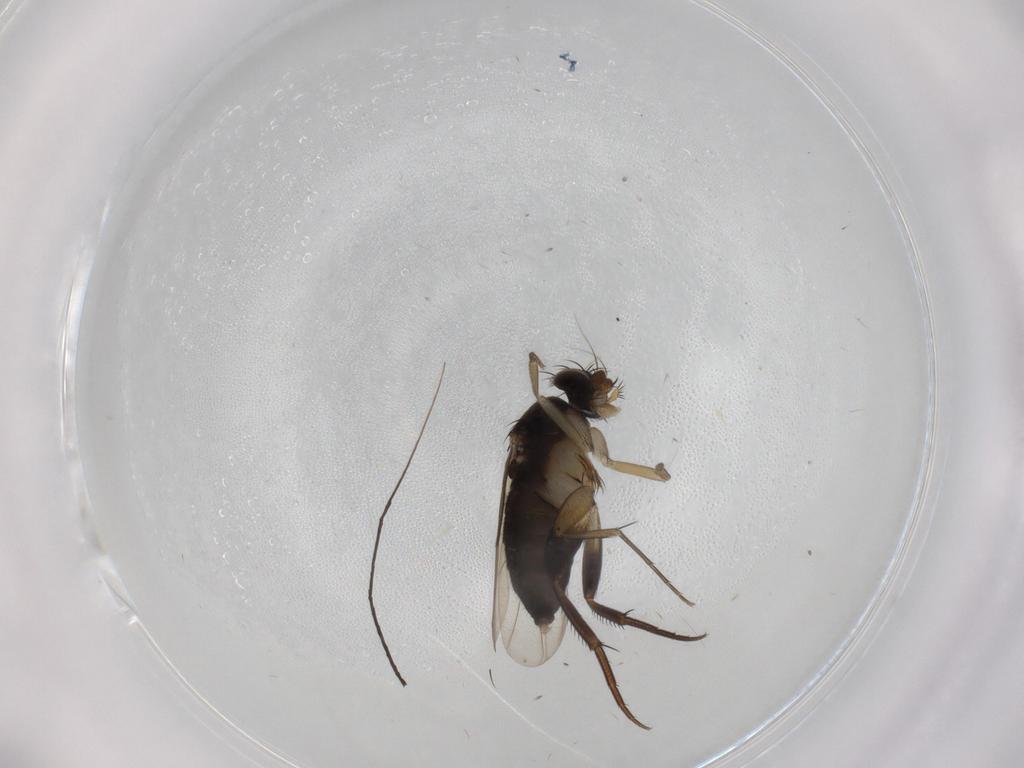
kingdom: Animalia
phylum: Arthropoda
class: Insecta
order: Diptera
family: Phoridae
